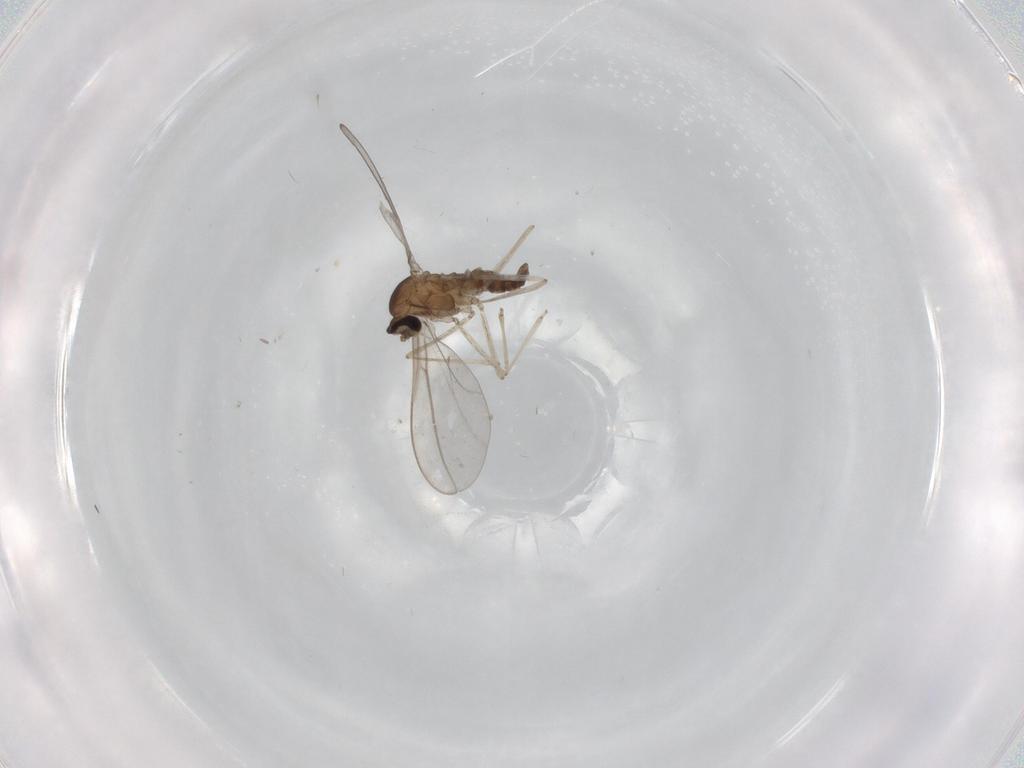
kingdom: Animalia
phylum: Arthropoda
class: Insecta
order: Diptera
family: Cecidomyiidae
